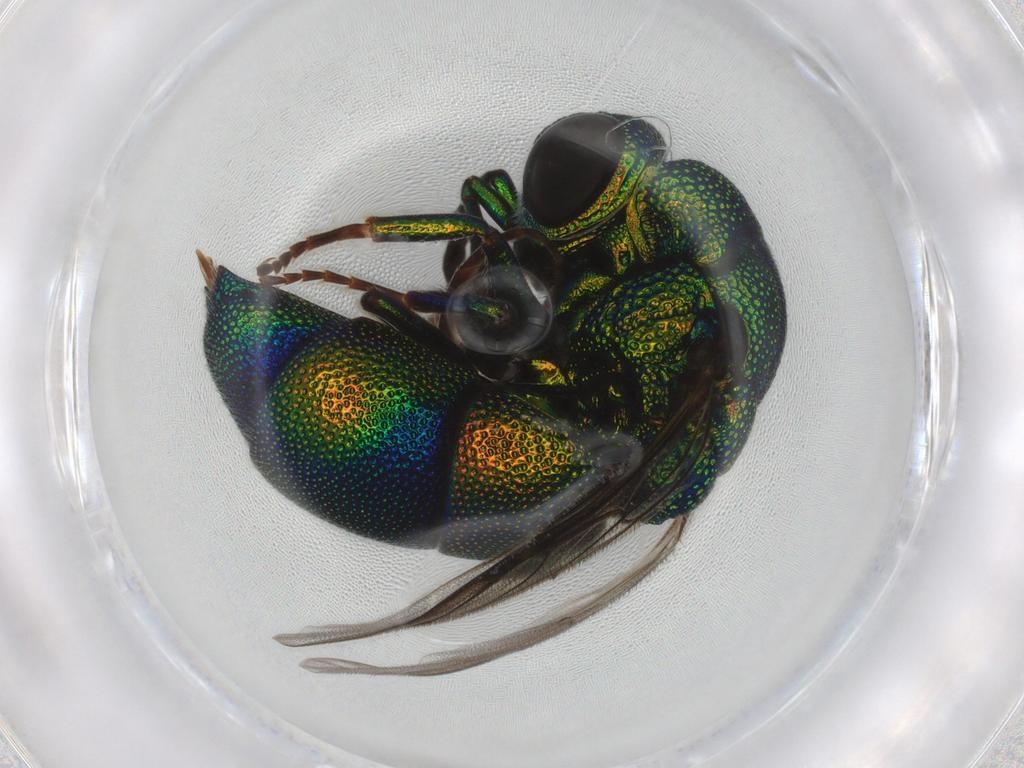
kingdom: Animalia
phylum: Arthropoda
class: Insecta
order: Hymenoptera
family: Chrysididae
